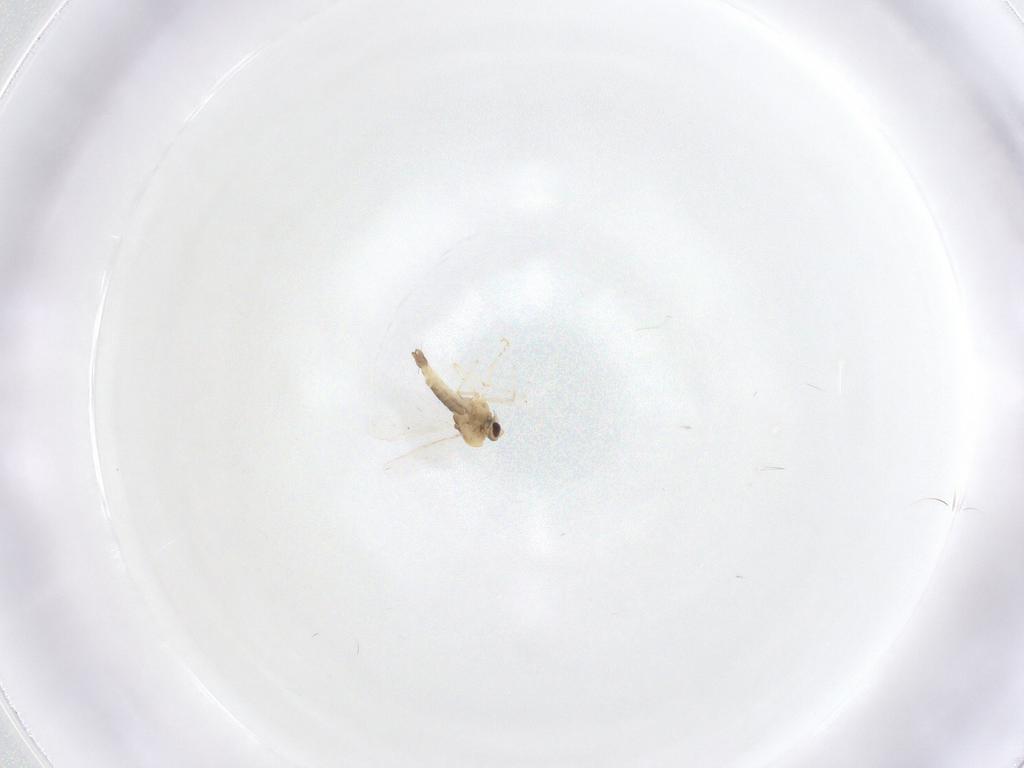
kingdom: Animalia
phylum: Arthropoda
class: Insecta
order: Diptera
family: Chironomidae
